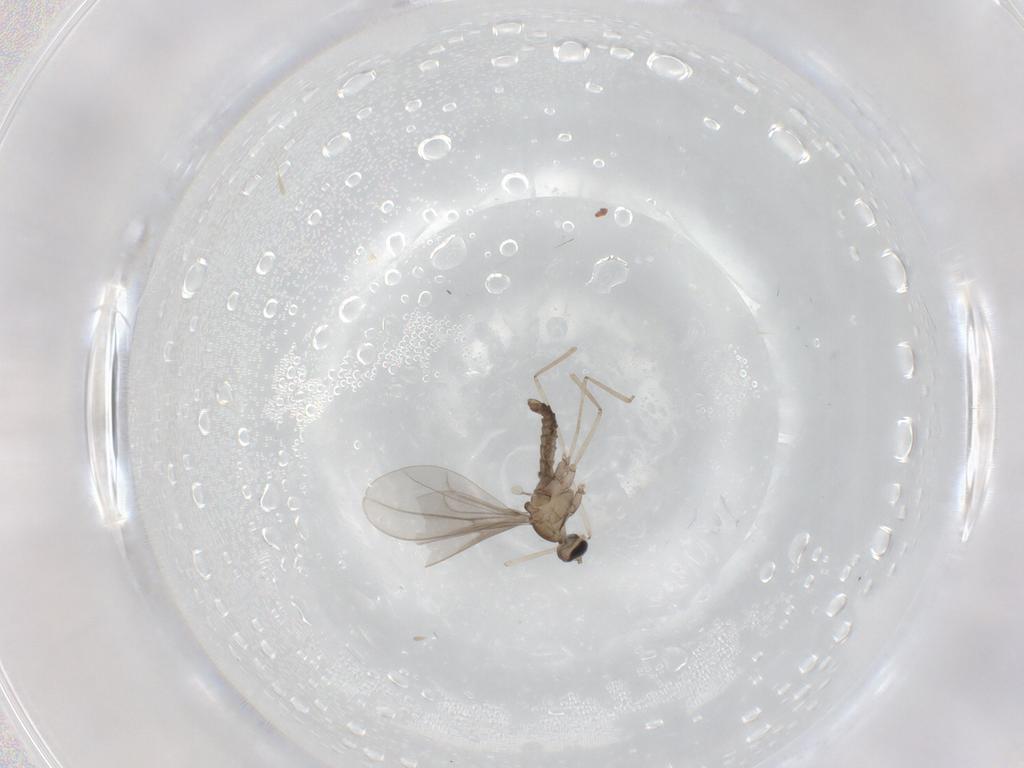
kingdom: Animalia
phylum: Arthropoda
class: Insecta
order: Diptera
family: Cecidomyiidae
